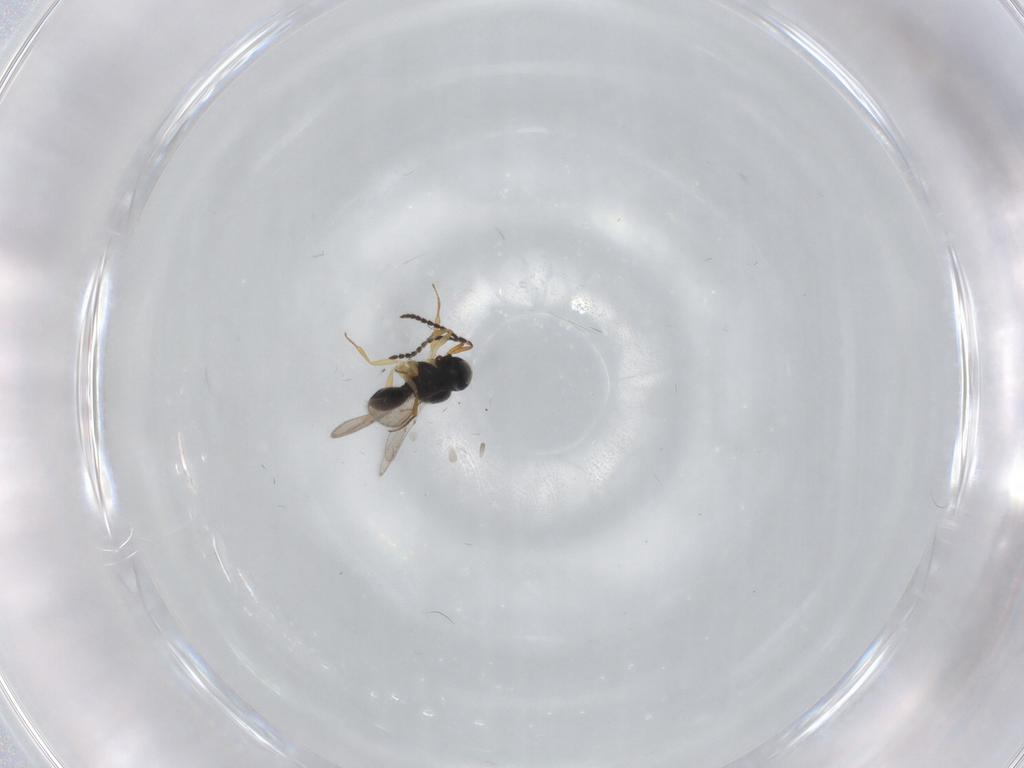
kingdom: Animalia
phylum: Arthropoda
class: Insecta
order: Hymenoptera
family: Scelionidae
